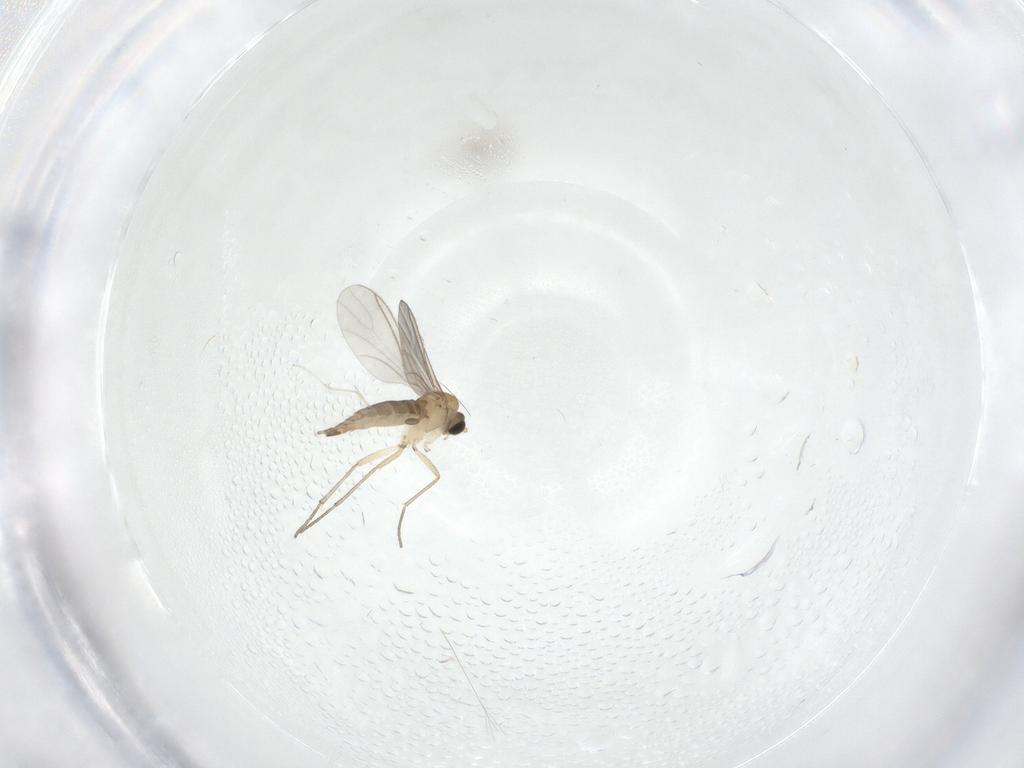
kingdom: Animalia
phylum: Arthropoda
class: Insecta
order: Diptera
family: Sciaridae
